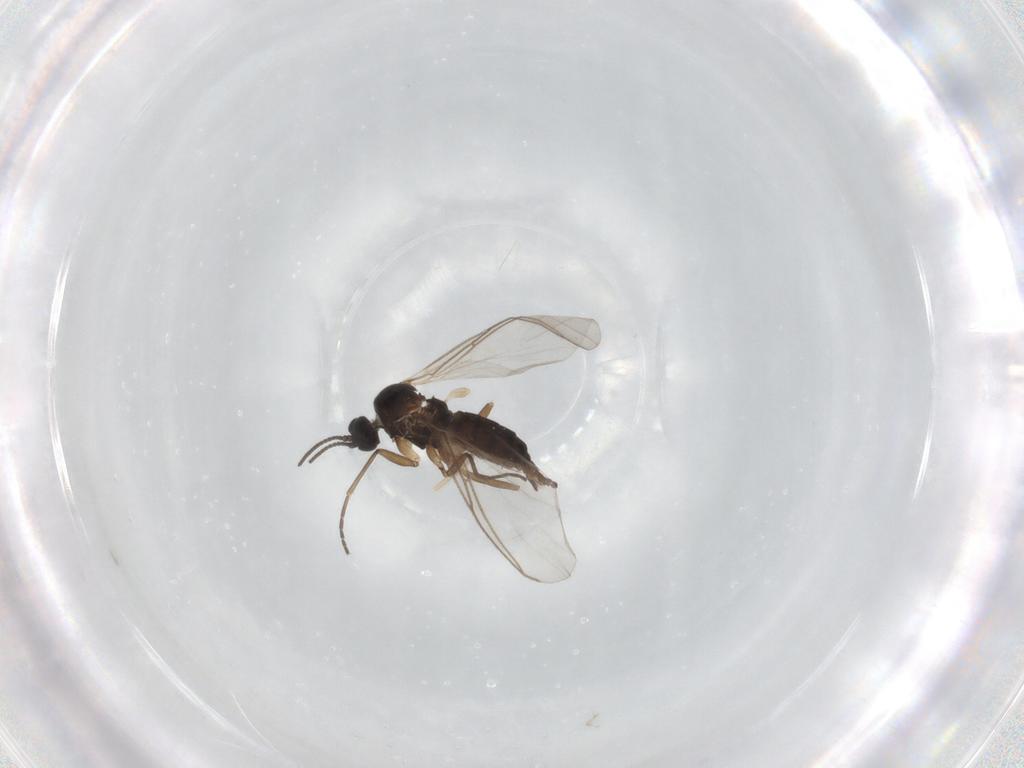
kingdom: Animalia
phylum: Arthropoda
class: Insecta
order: Diptera
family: Sciaridae
